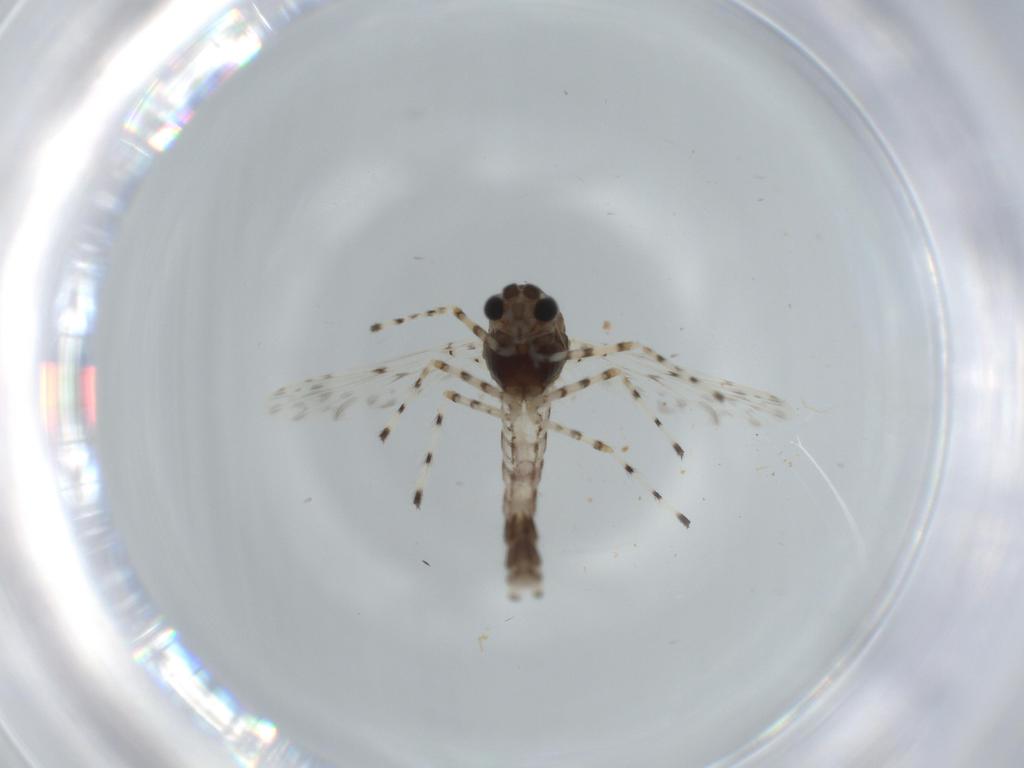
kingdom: Animalia
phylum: Arthropoda
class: Insecta
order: Diptera
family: Chironomidae
